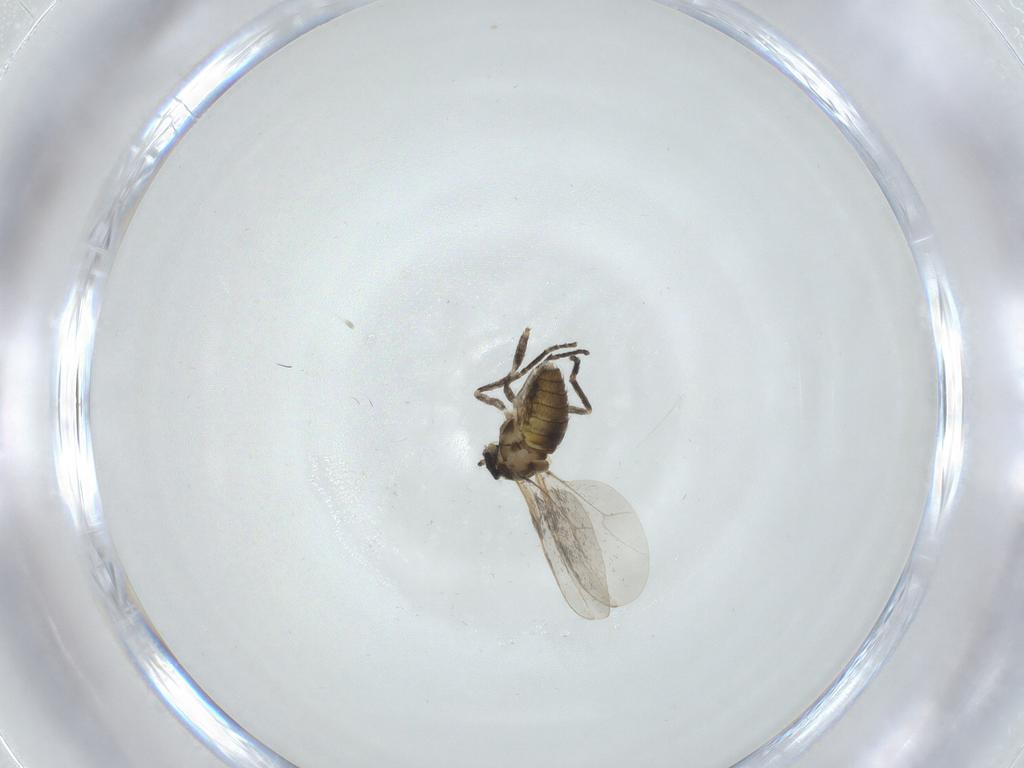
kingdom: Animalia
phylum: Arthropoda
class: Insecta
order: Diptera
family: Cecidomyiidae
